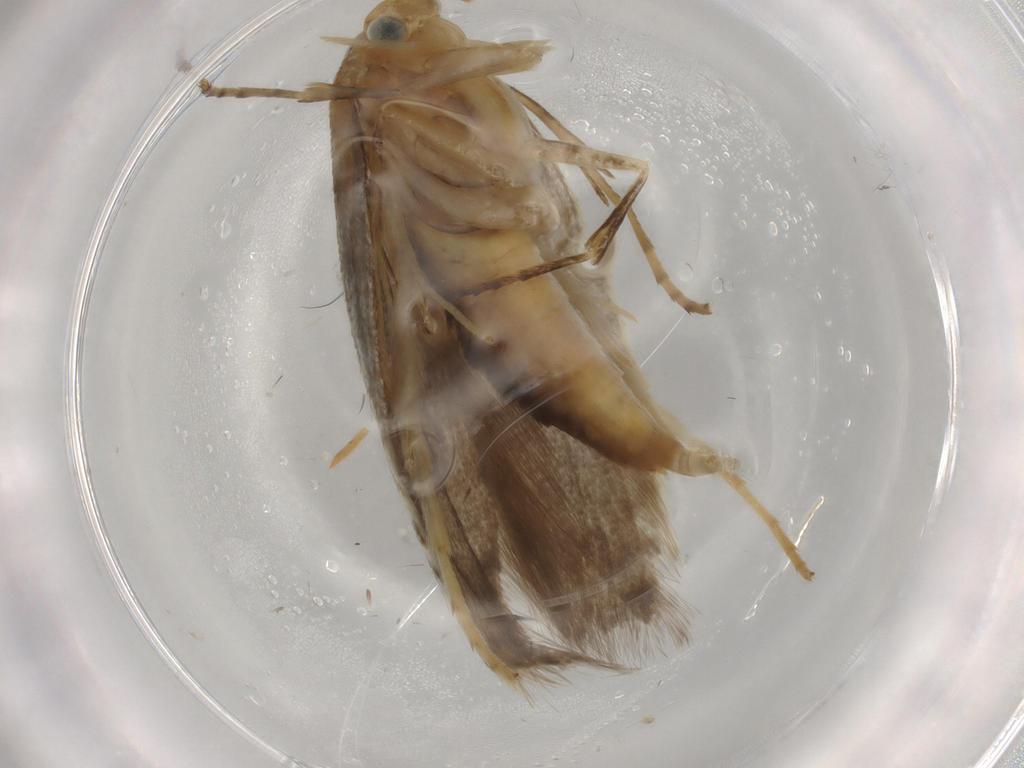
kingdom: Animalia
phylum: Arthropoda
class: Insecta
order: Lepidoptera
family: Argyresthiidae
